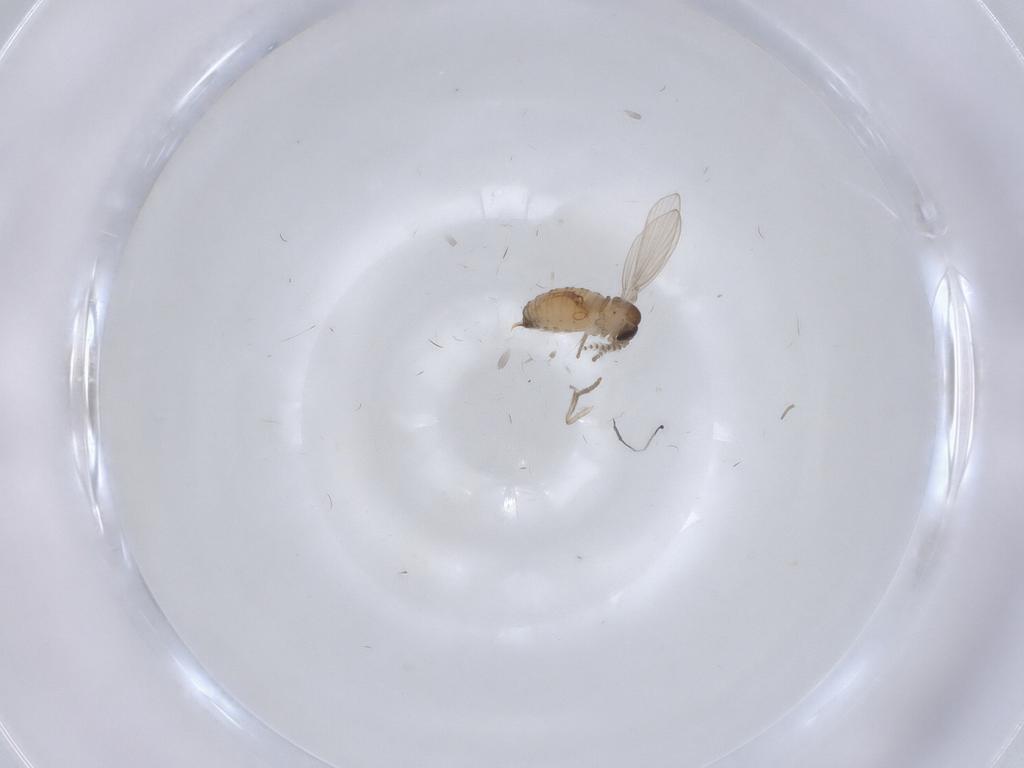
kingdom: Animalia
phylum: Arthropoda
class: Insecta
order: Diptera
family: Psychodidae
